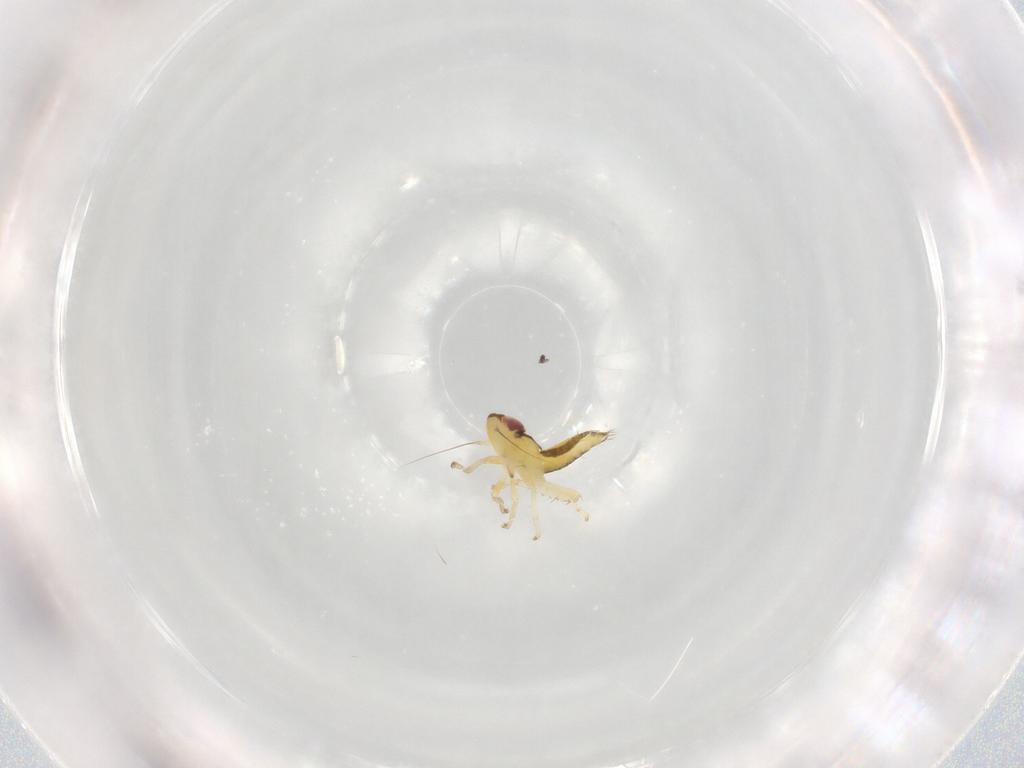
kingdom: Animalia
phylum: Arthropoda
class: Insecta
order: Hemiptera
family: Cicadellidae
